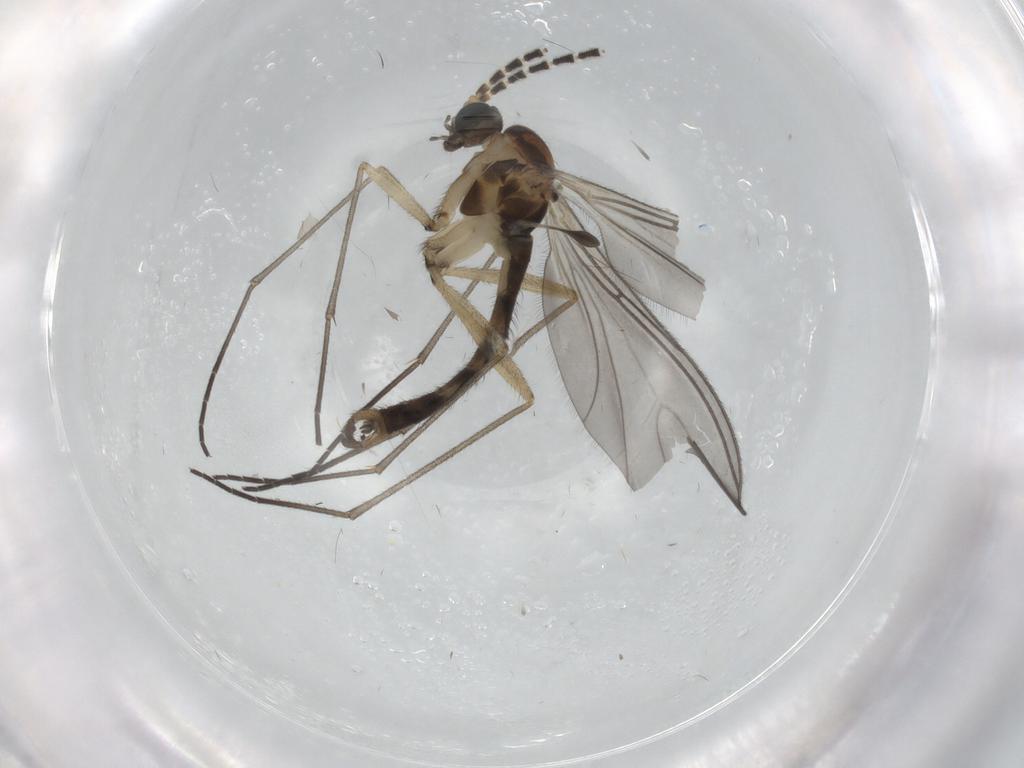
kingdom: Animalia
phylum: Arthropoda
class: Insecta
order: Diptera
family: Sciaridae
